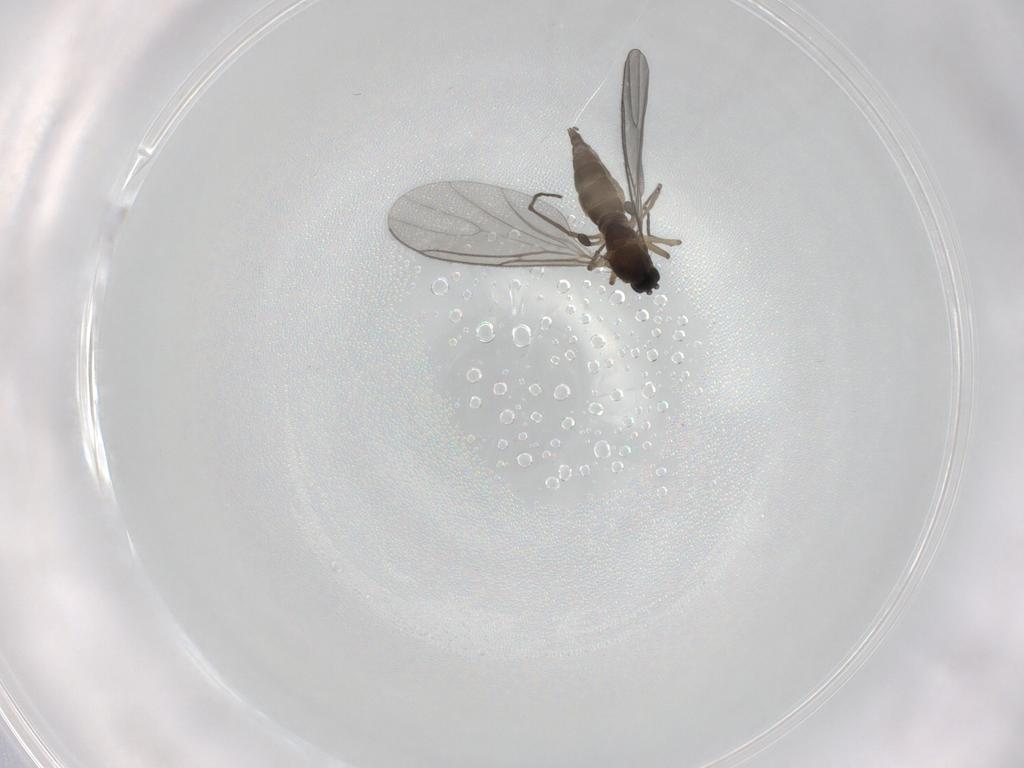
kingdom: Animalia
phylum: Arthropoda
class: Insecta
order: Diptera
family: Sciaridae
